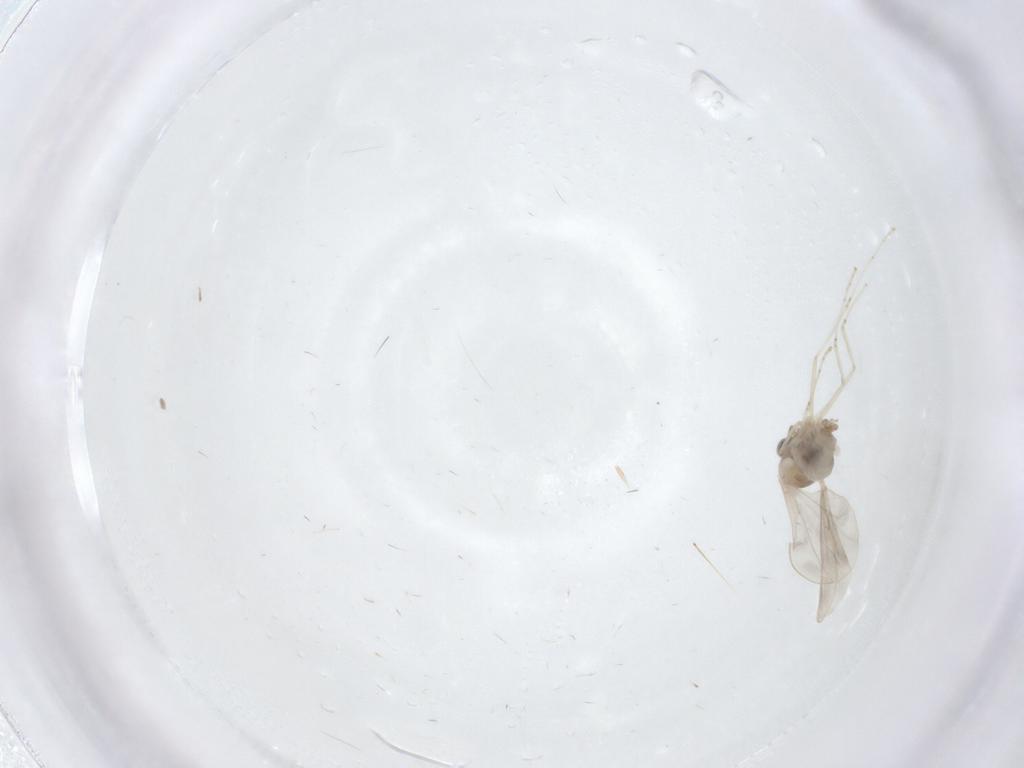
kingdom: Animalia
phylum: Arthropoda
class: Insecta
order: Diptera
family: Cecidomyiidae
